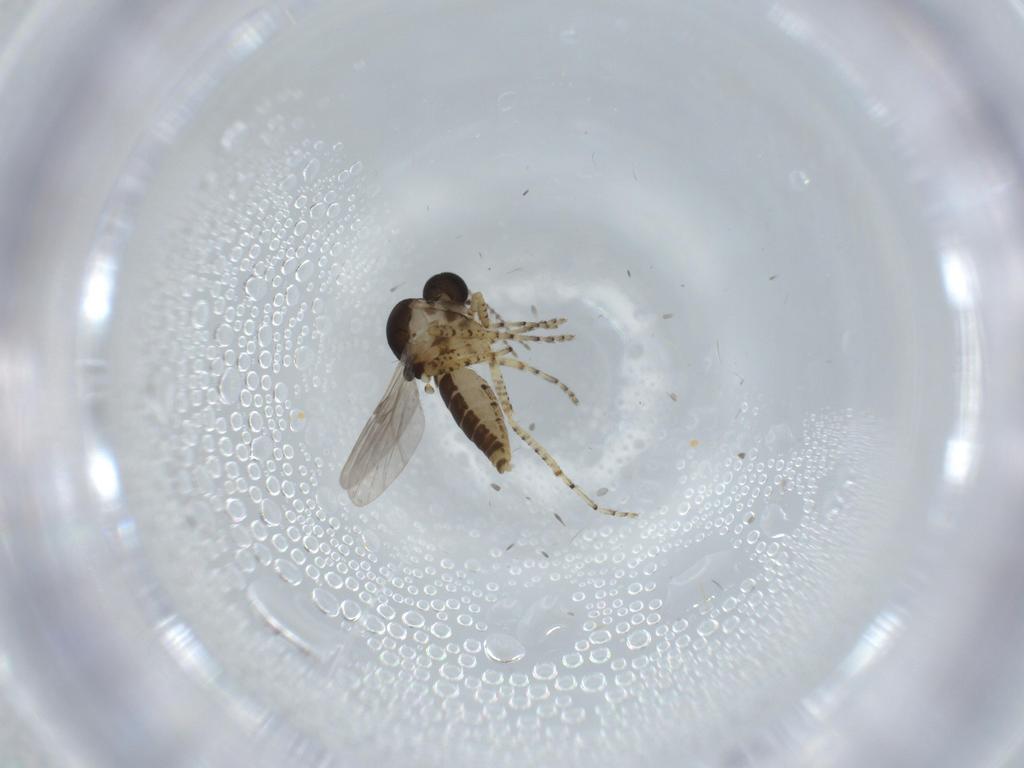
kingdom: Animalia
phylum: Arthropoda
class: Insecta
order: Diptera
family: Ceratopogonidae
